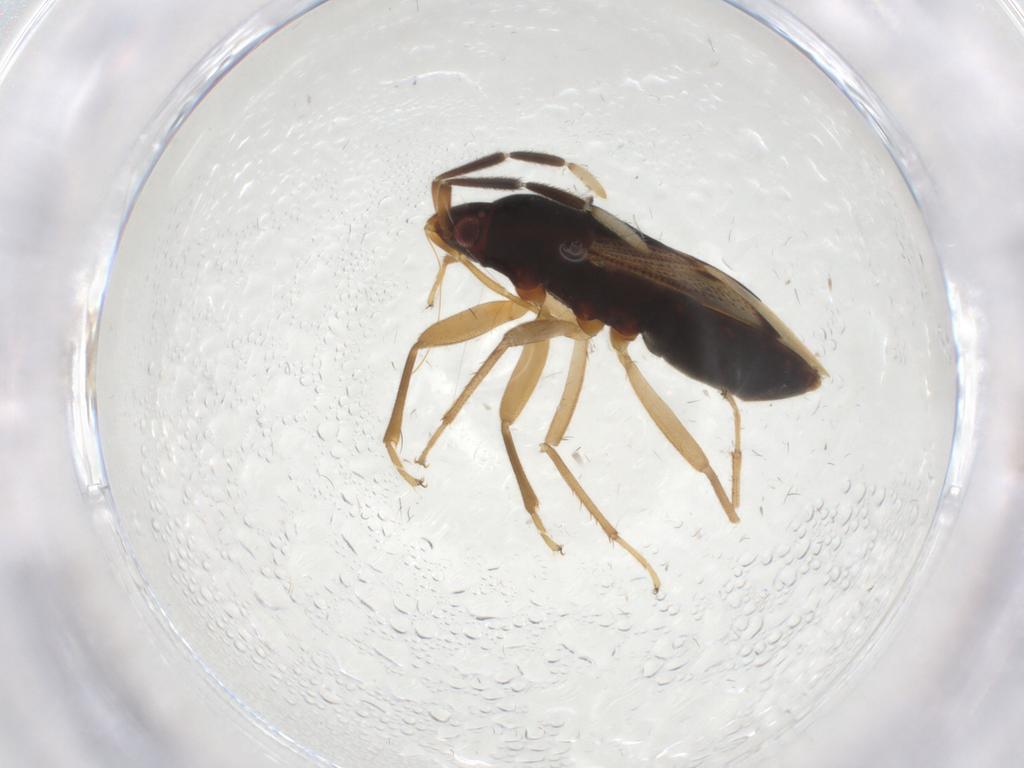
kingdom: Animalia
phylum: Arthropoda
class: Insecta
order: Hemiptera
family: Rhyparochromidae
